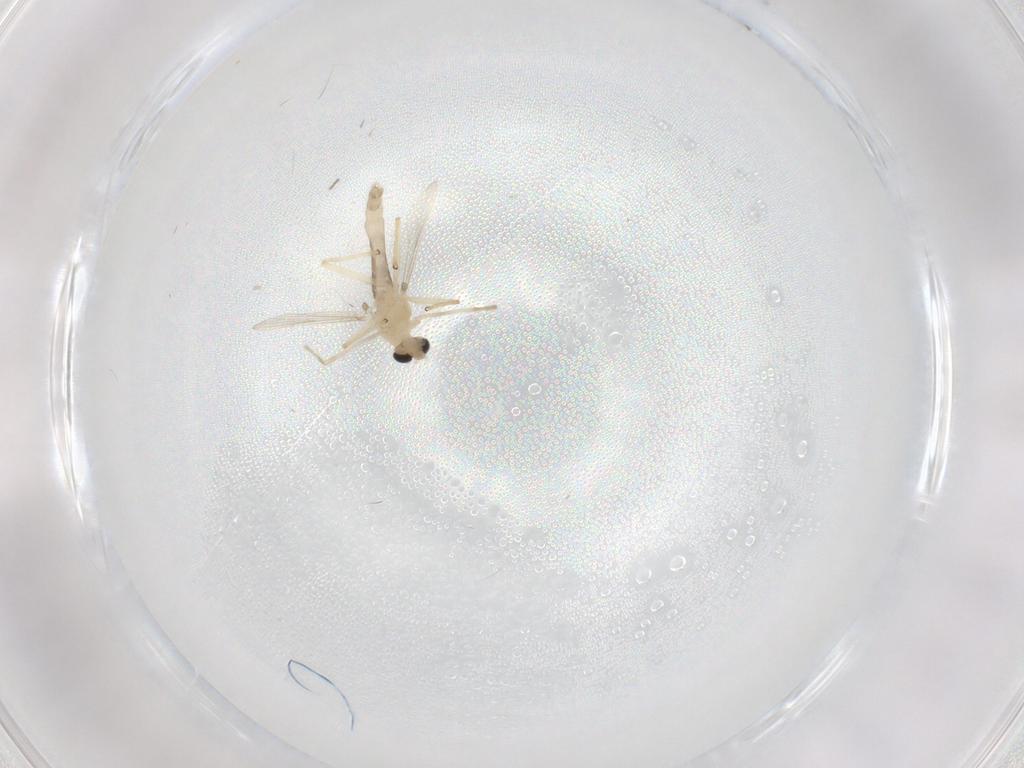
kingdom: Animalia
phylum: Arthropoda
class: Insecta
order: Diptera
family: Chironomidae
